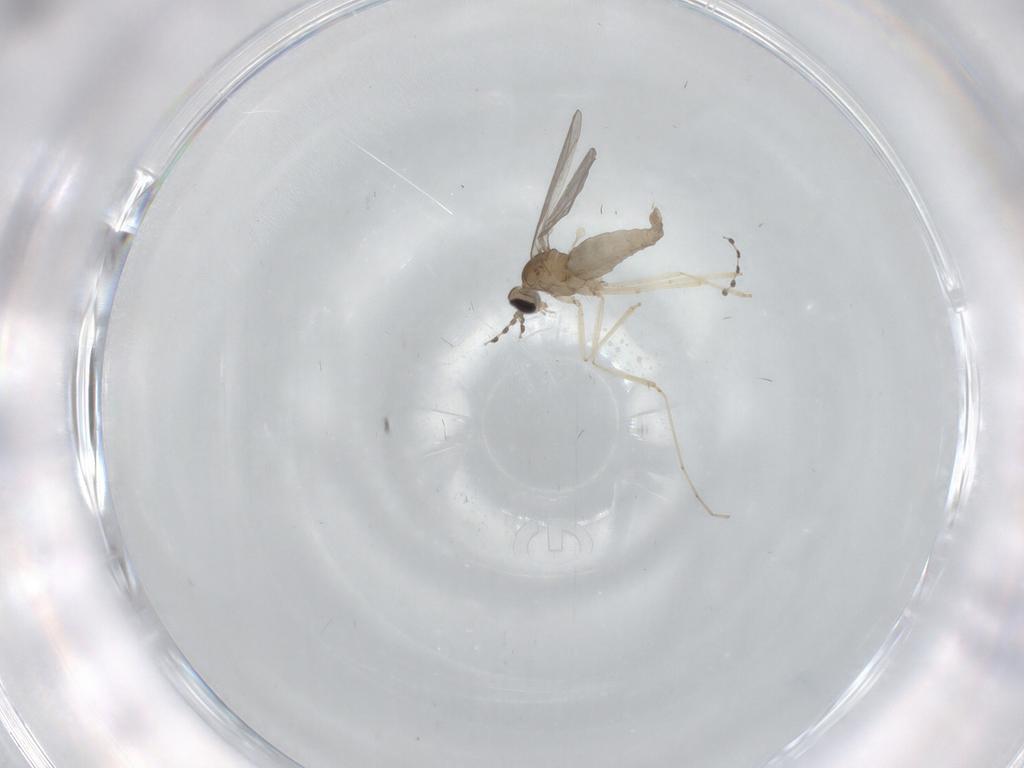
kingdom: Animalia
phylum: Arthropoda
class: Insecta
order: Diptera
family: Cecidomyiidae
